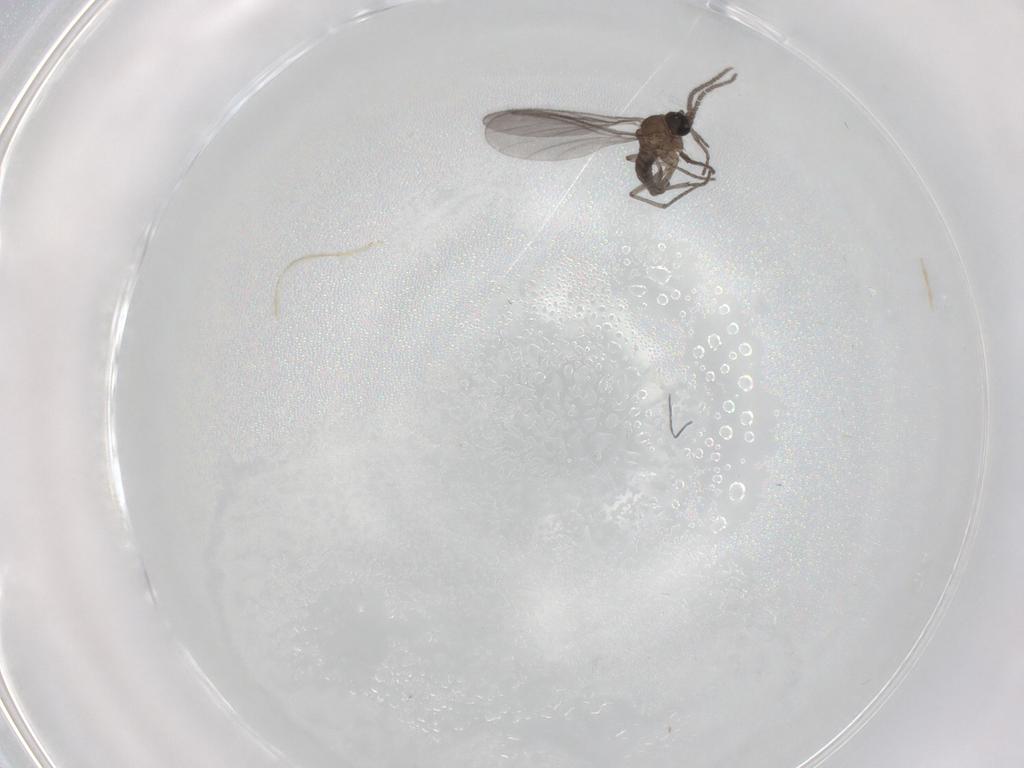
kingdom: Animalia
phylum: Arthropoda
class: Insecta
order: Diptera
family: Sciaridae
